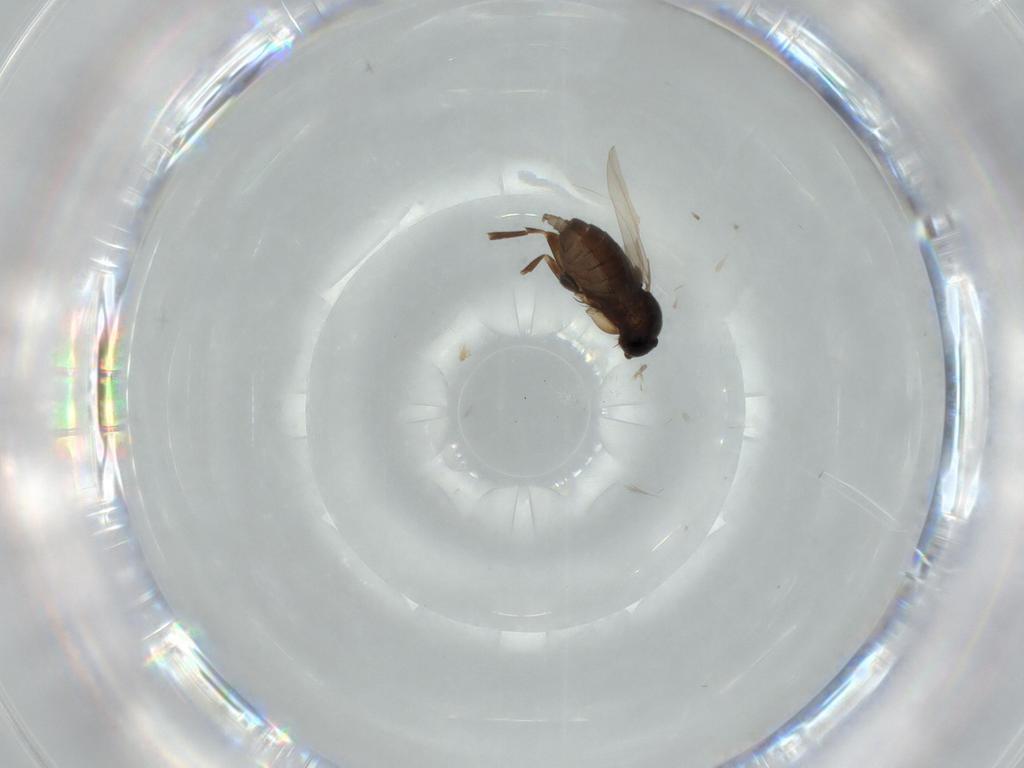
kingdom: Animalia
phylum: Arthropoda
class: Insecta
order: Diptera
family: Phoridae
